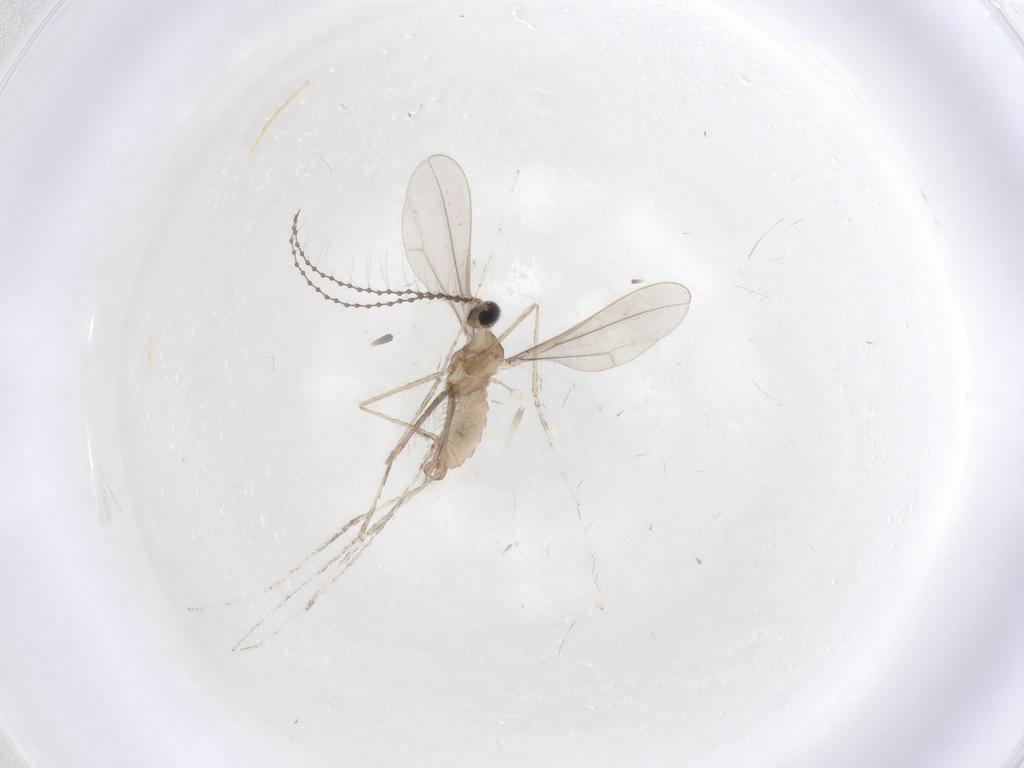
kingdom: Animalia
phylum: Arthropoda
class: Insecta
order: Diptera
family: Cecidomyiidae
